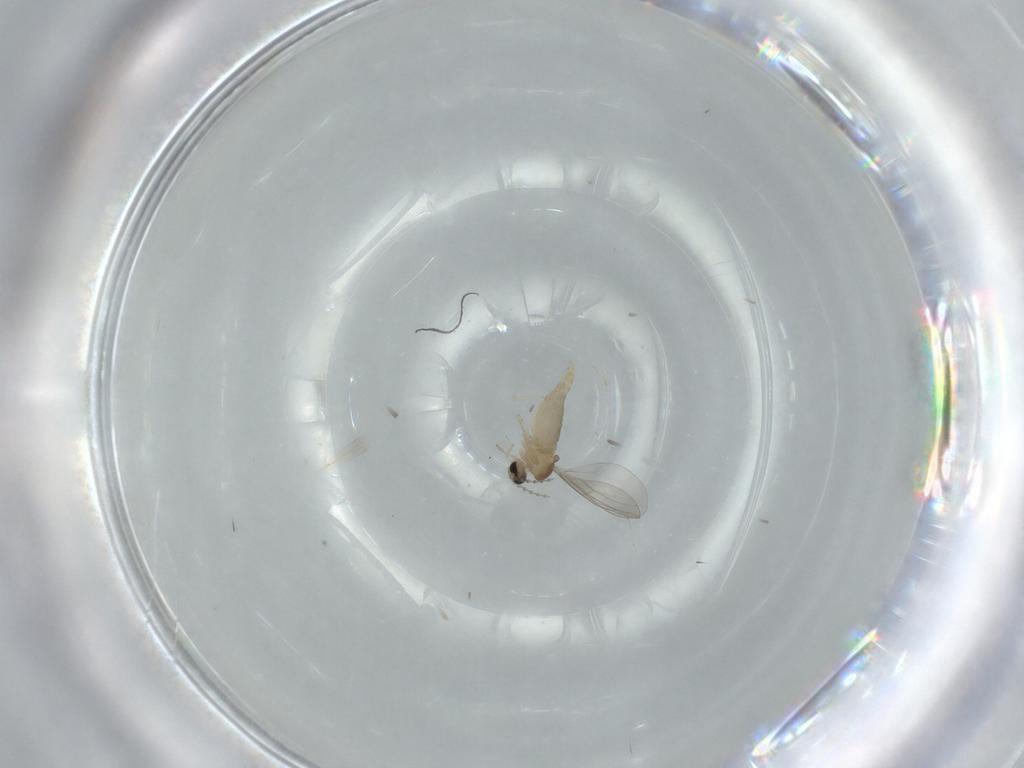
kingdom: Animalia
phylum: Arthropoda
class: Insecta
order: Diptera
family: Cecidomyiidae
